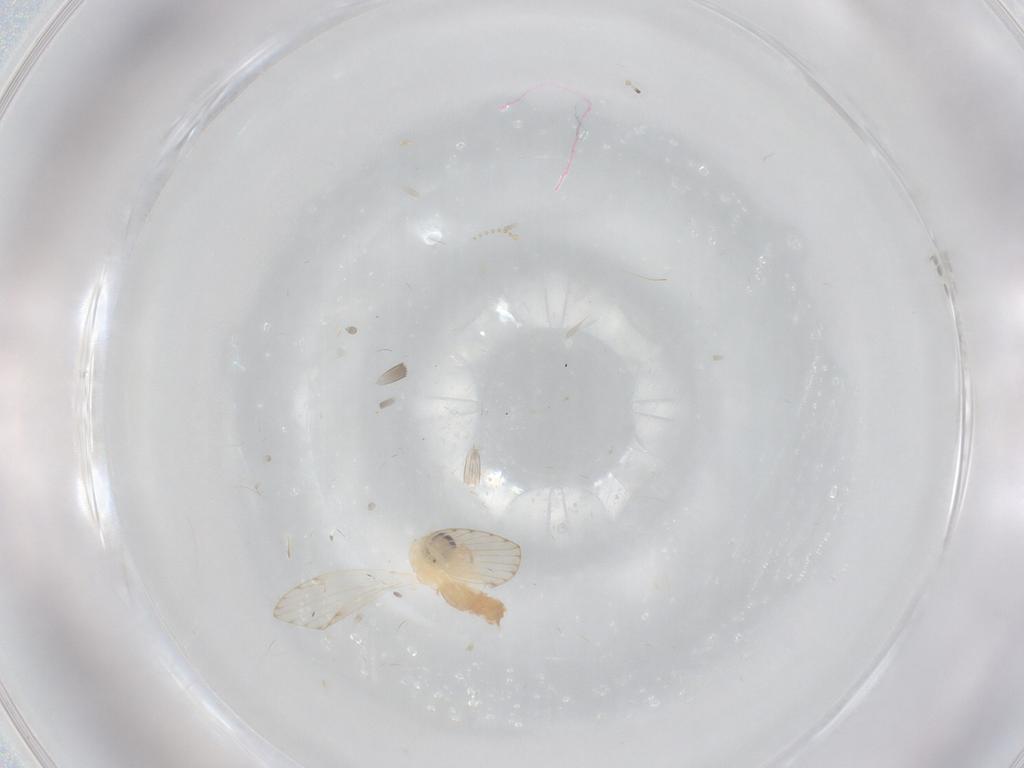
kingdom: Animalia
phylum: Arthropoda
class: Insecta
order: Diptera
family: Psychodidae
